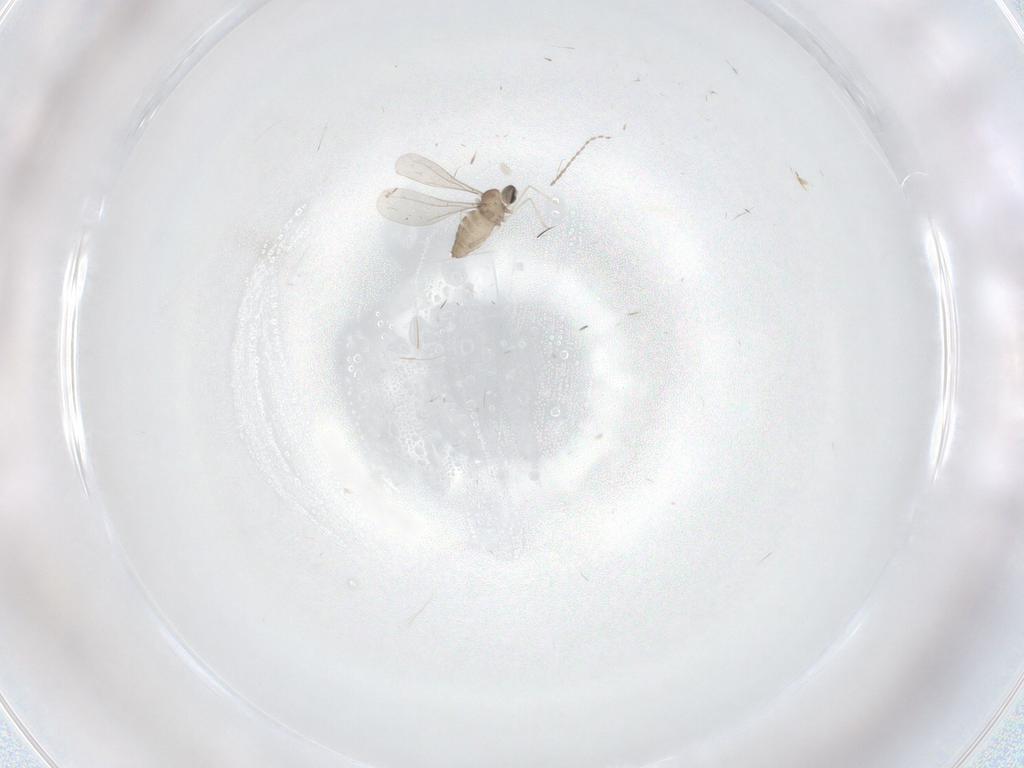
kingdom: Animalia
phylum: Arthropoda
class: Insecta
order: Diptera
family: Cecidomyiidae
